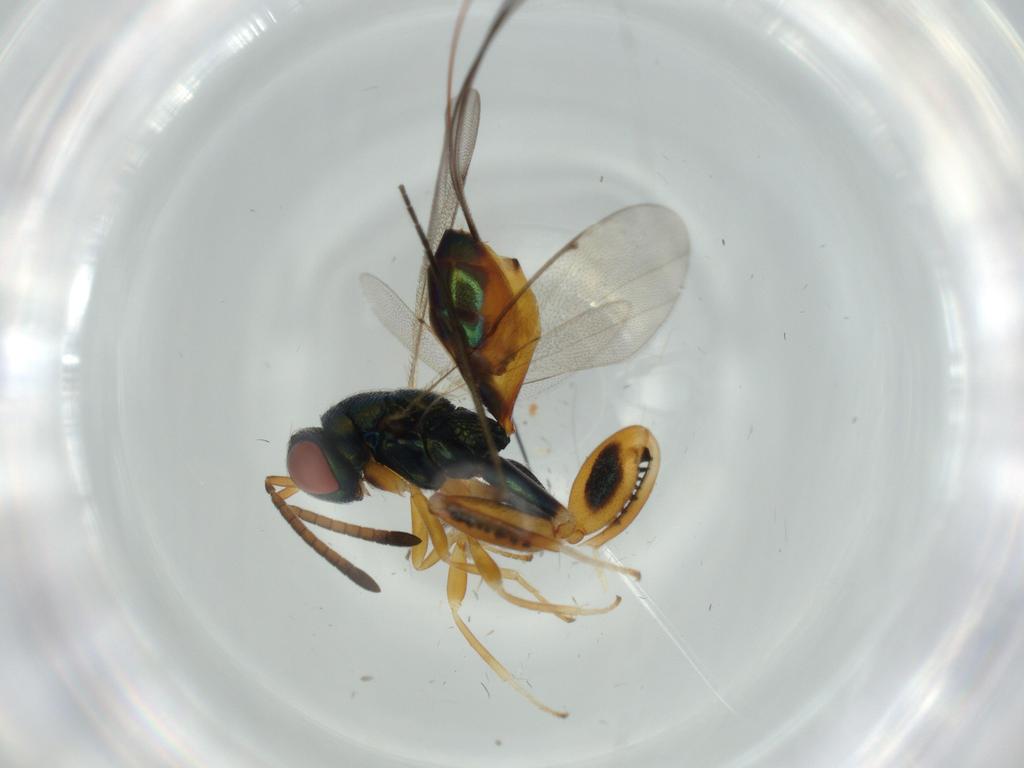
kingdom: Animalia
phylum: Arthropoda
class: Insecta
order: Hymenoptera
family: Torymidae
